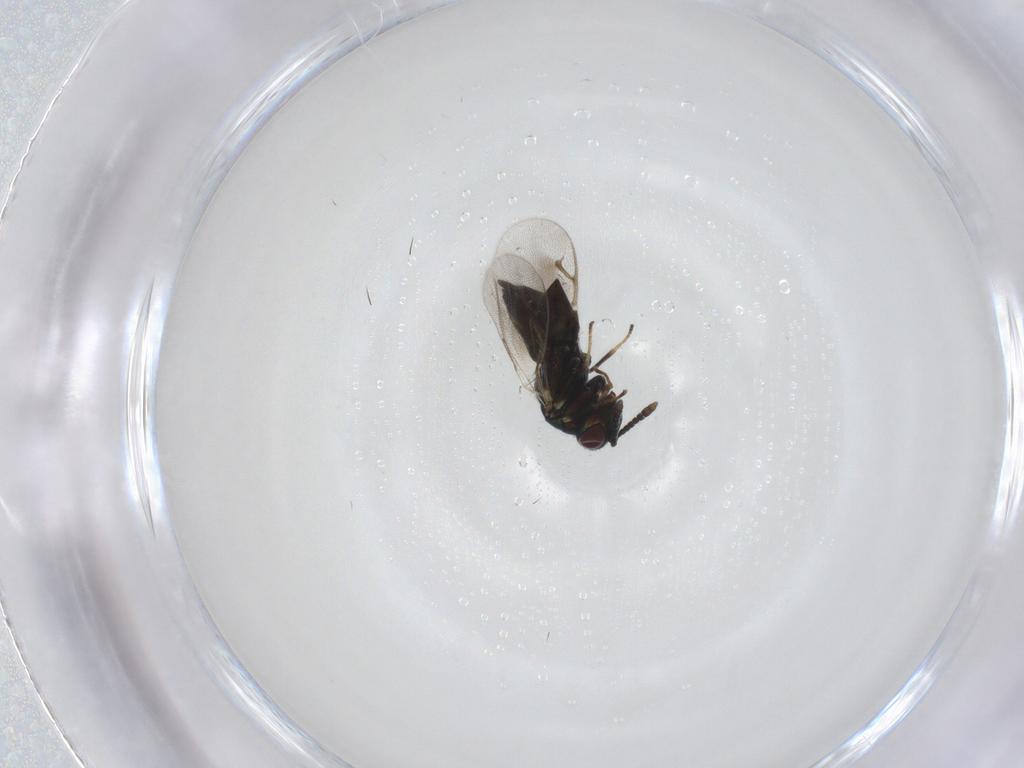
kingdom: Animalia
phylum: Arthropoda
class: Insecta
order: Hymenoptera
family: Pteromalidae
